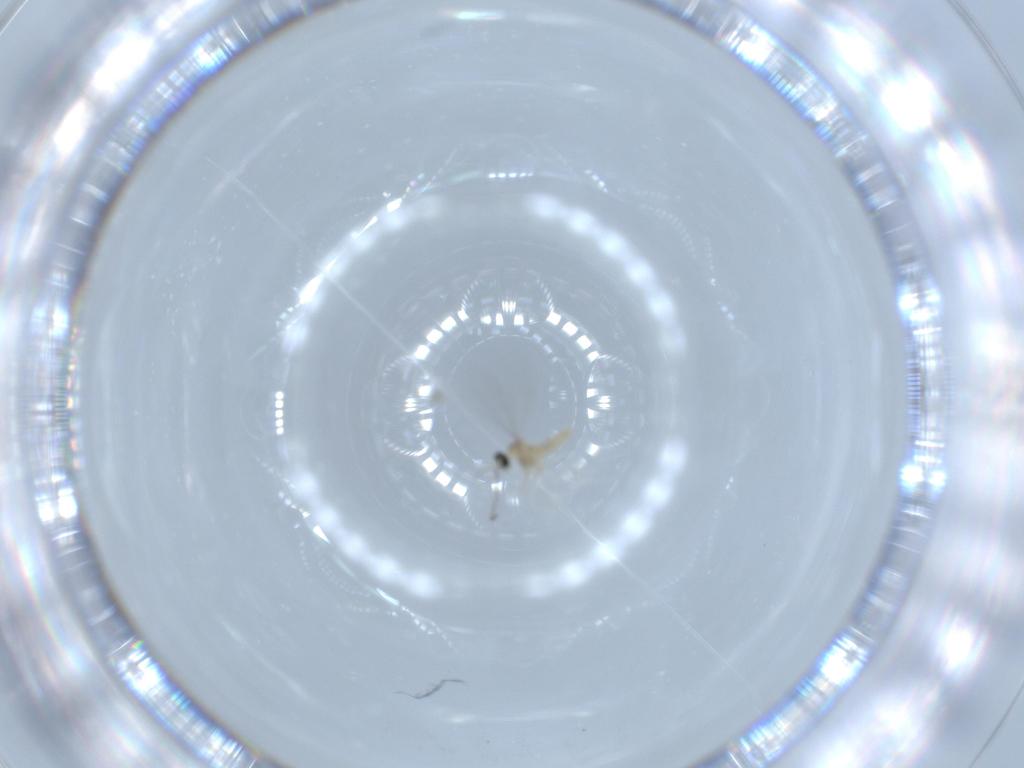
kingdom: Animalia
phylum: Arthropoda
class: Insecta
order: Diptera
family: Cecidomyiidae
